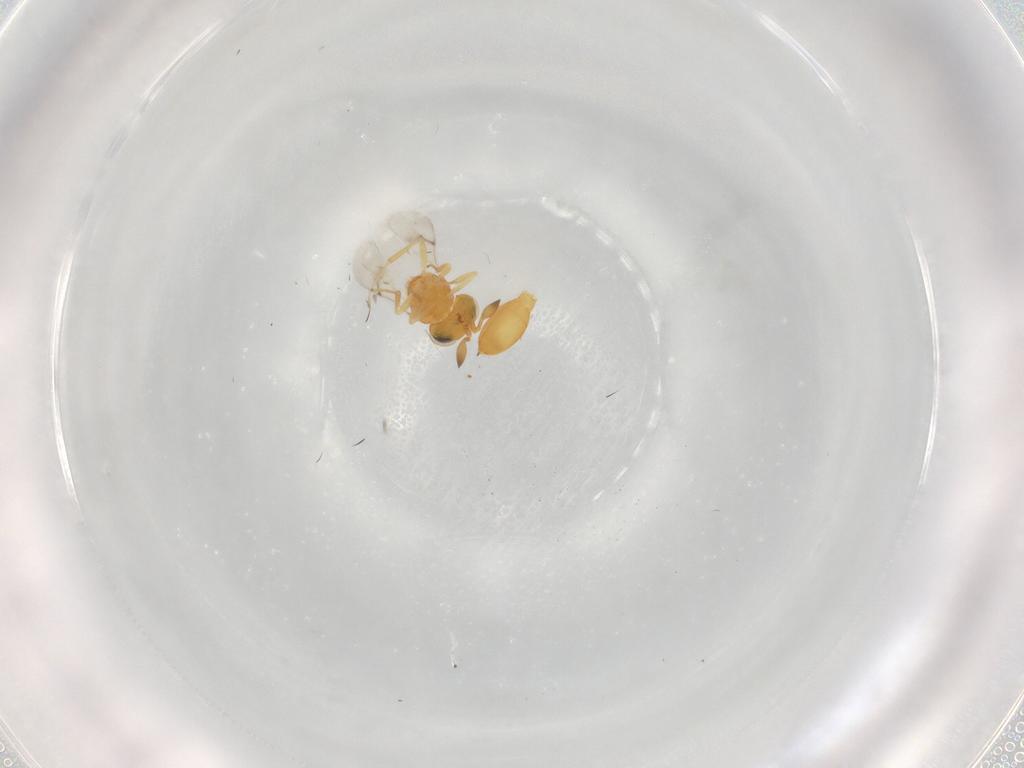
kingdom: Animalia
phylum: Arthropoda
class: Insecta
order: Hymenoptera
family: Scelionidae
